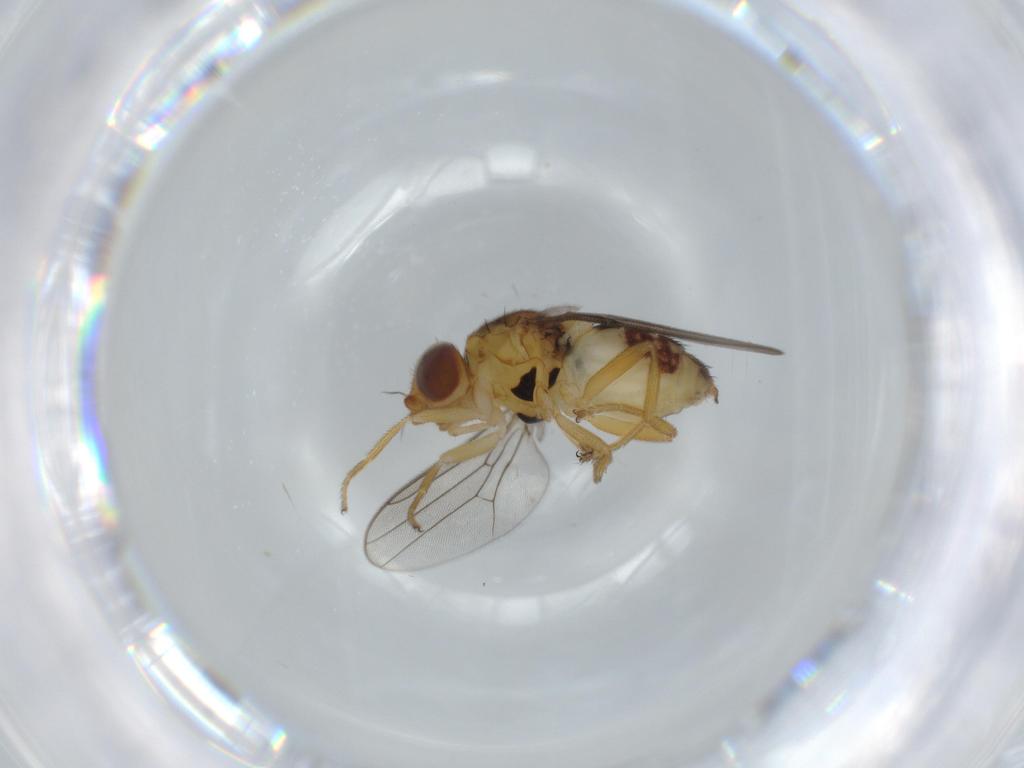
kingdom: Animalia
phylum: Arthropoda
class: Insecta
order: Diptera
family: Chloropidae
